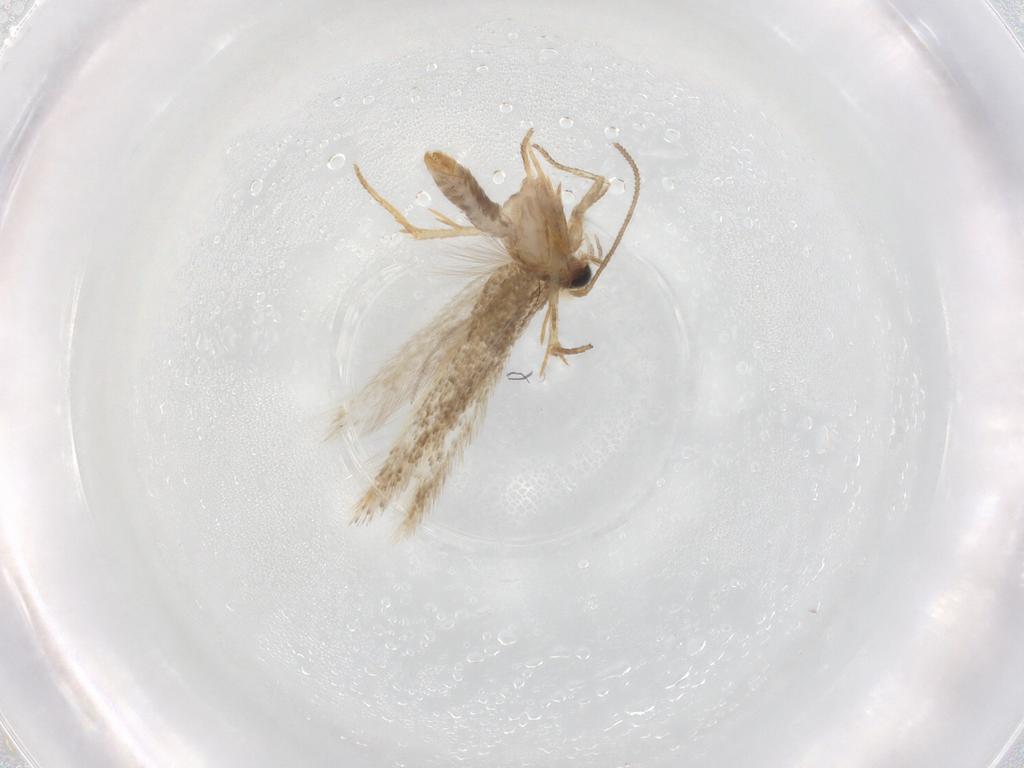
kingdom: Animalia
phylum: Arthropoda
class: Insecta
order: Lepidoptera
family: Nepticulidae
